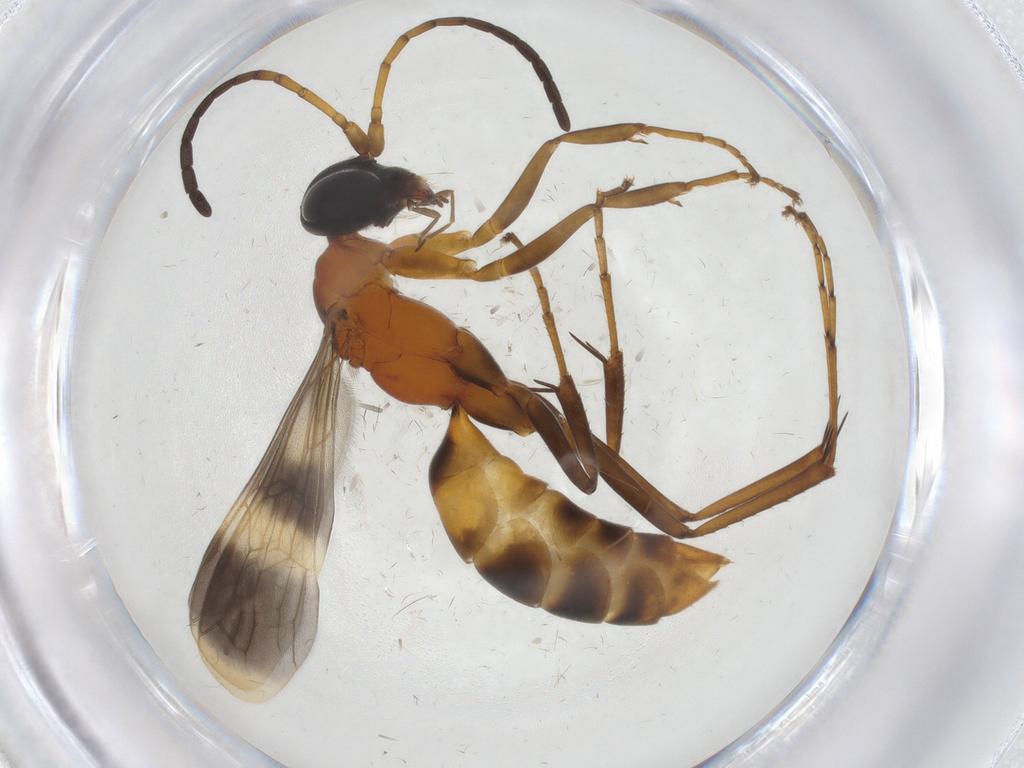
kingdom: Animalia
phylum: Arthropoda
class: Insecta
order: Hymenoptera
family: Pompilidae
